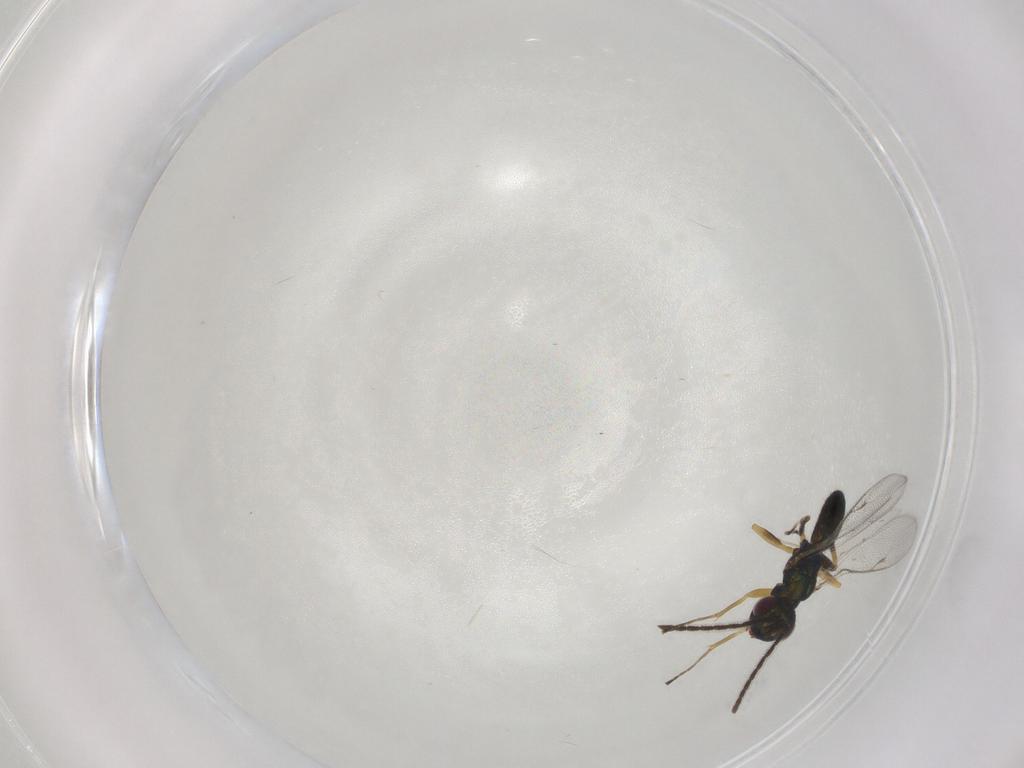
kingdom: Animalia
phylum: Arthropoda
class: Insecta
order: Hymenoptera
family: Eupelmidae
